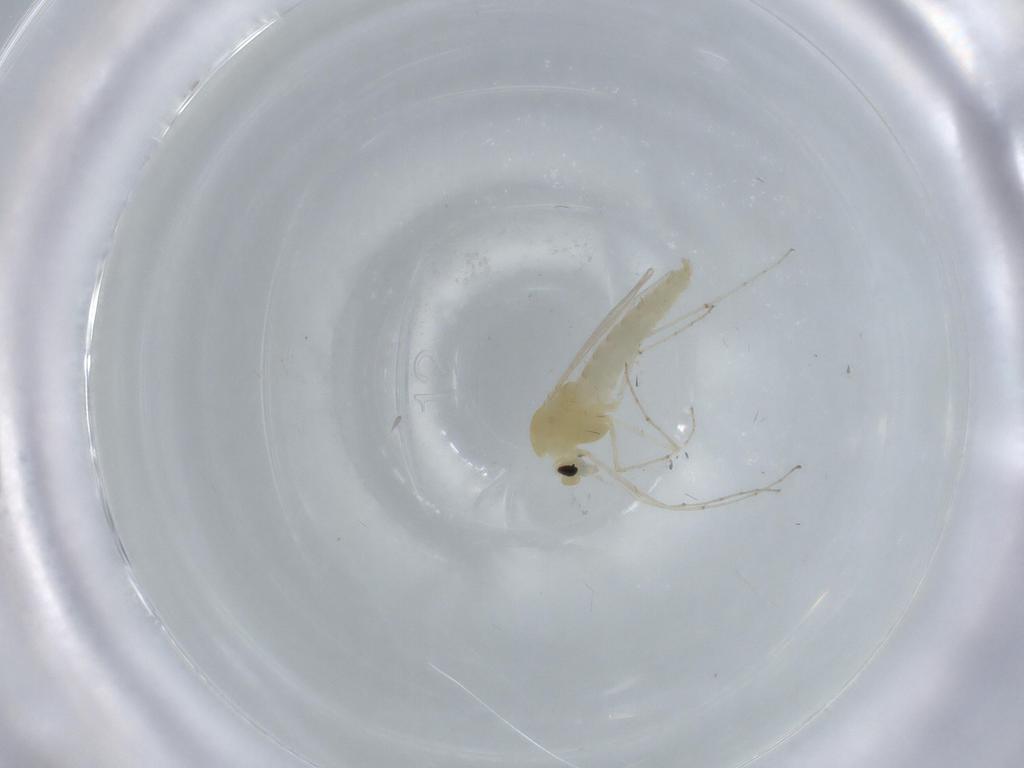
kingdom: Animalia
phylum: Arthropoda
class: Insecta
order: Diptera
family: Chironomidae
